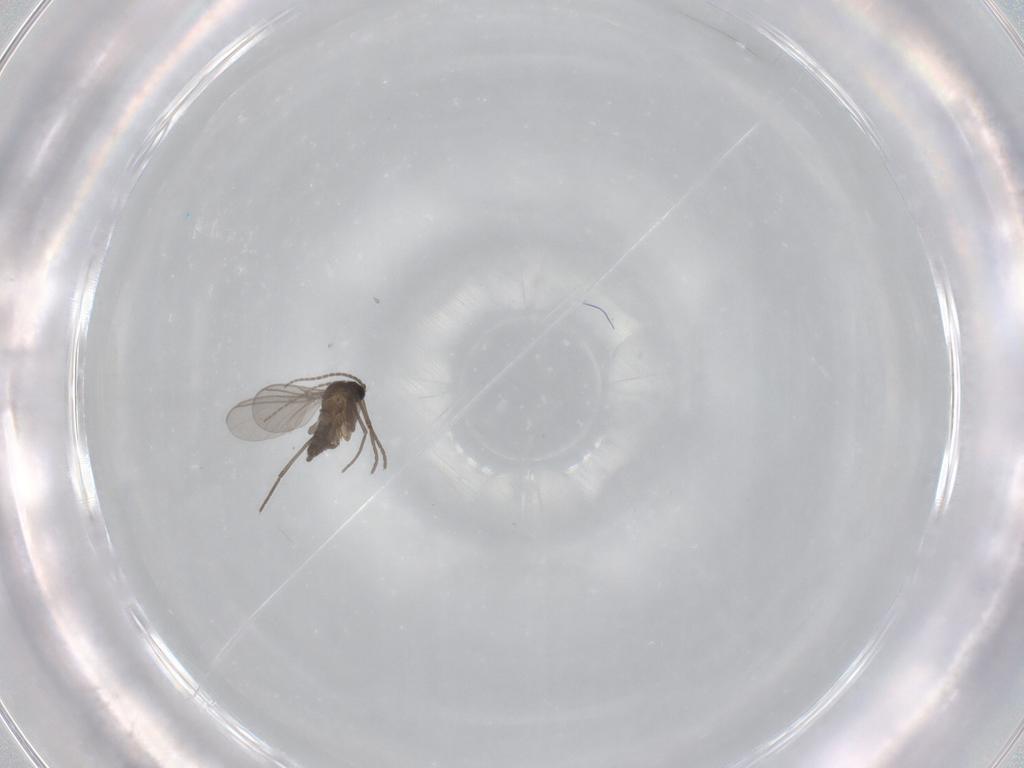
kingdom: Animalia
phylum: Arthropoda
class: Insecta
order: Diptera
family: Sciaridae
